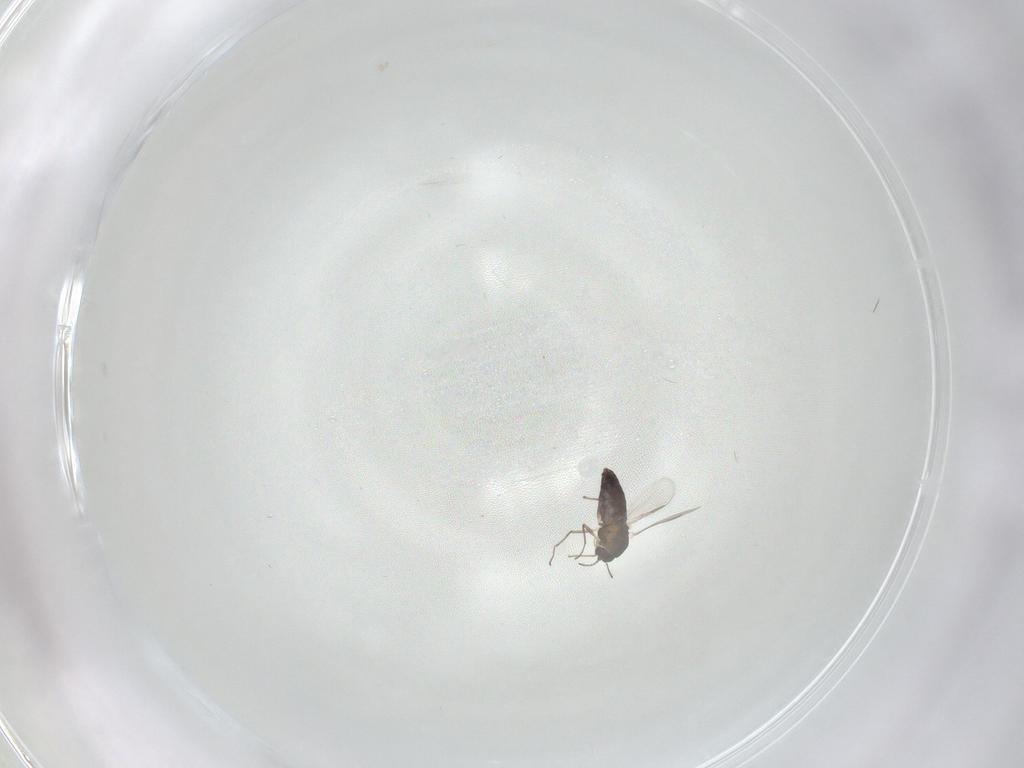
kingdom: Animalia
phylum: Arthropoda
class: Insecta
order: Diptera
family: Chironomidae
